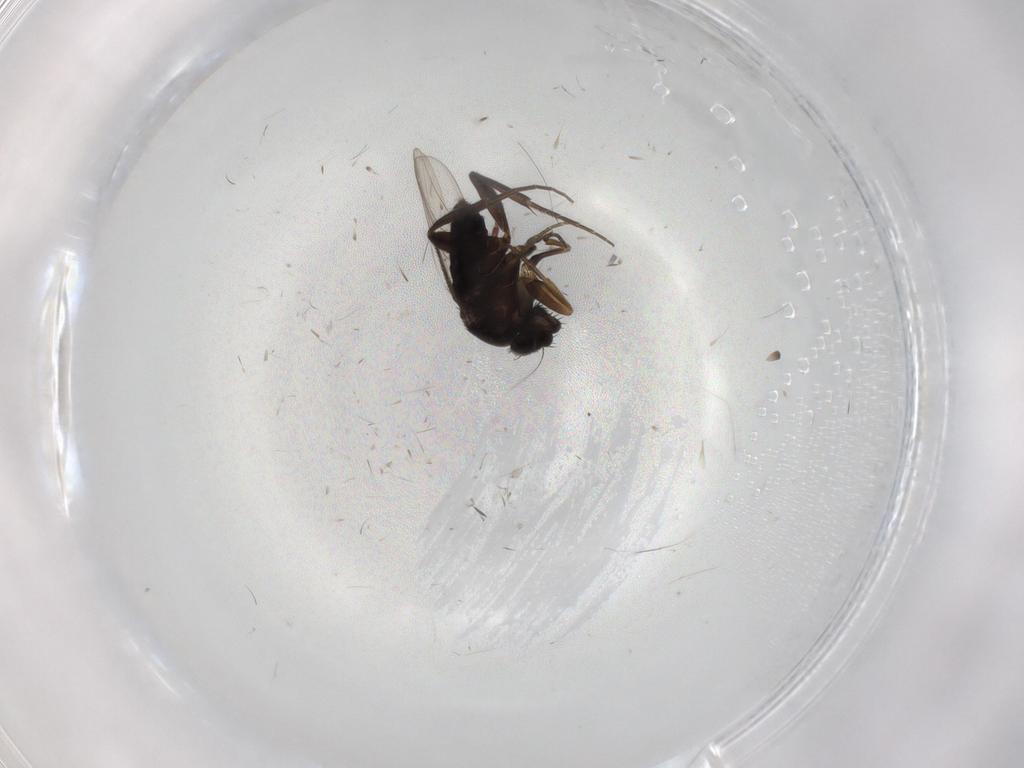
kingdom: Animalia
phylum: Arthropoda
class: Insecta
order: Diptera
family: Phoridae
